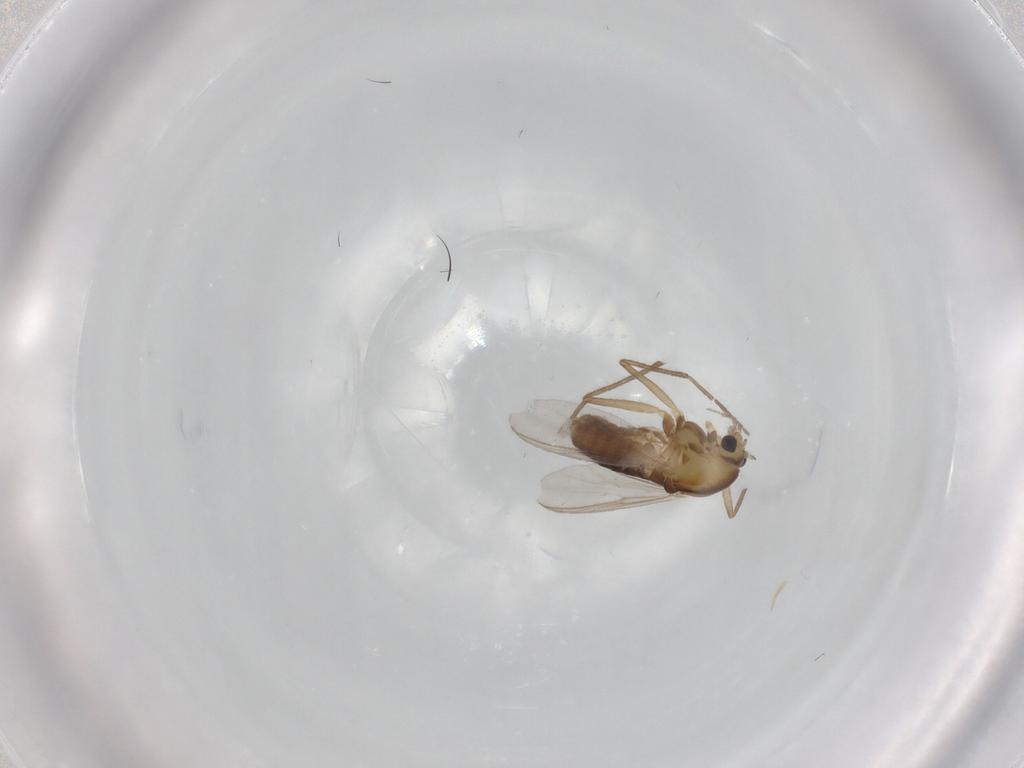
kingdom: Animalia
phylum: Arthropoda
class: Insecta
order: Diptera
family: Chironomidae
